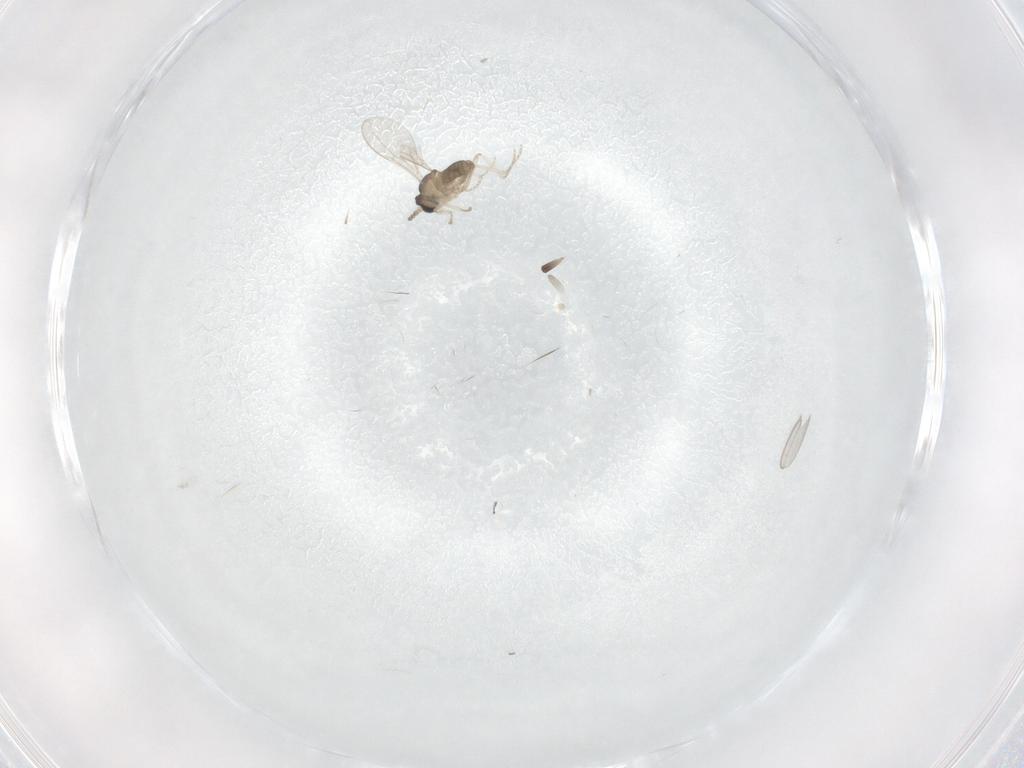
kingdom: Animalia
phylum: Arthropoda
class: Insecta
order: Diptera
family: Cecidomyiidae
